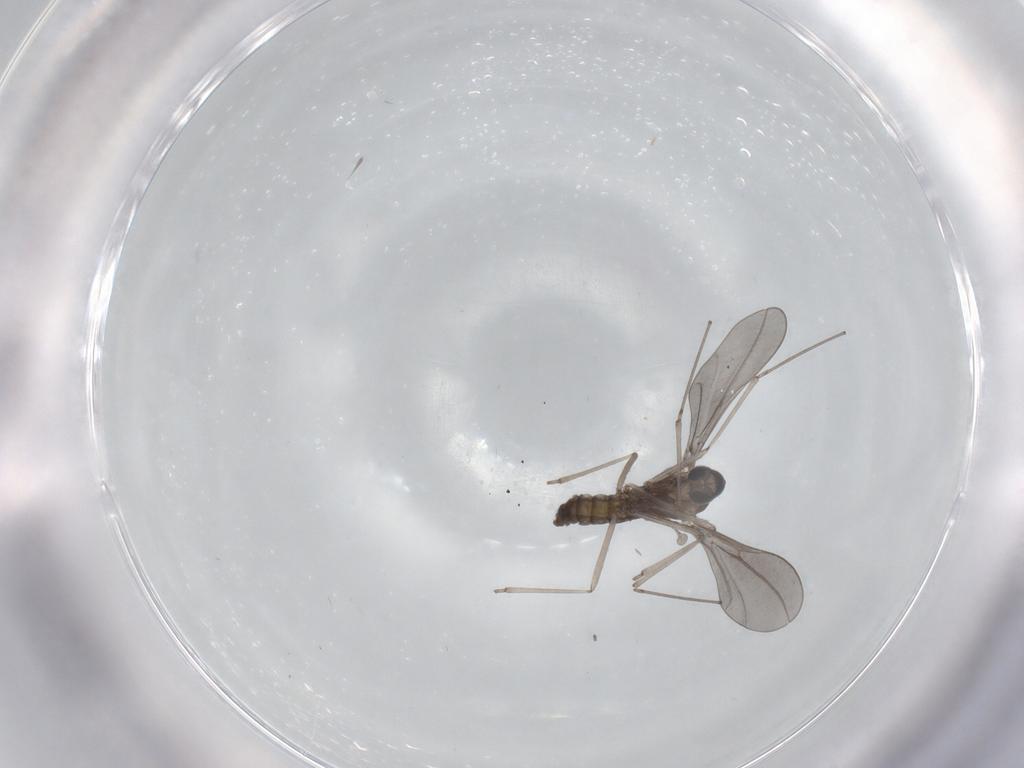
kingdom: Animalia
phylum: Arthropoda
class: Insecta
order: Diptera
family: Cecidomyiidae
